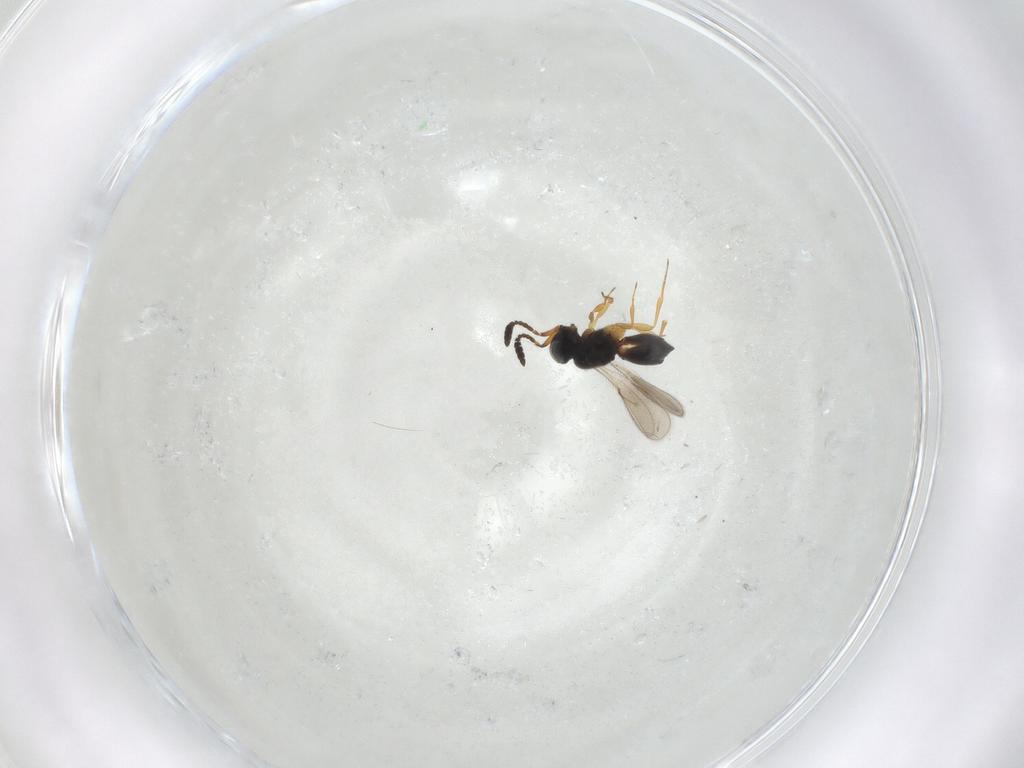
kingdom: Animalia
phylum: Arthropoda
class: Insecta
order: Hymenoptera
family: Scelionidae
